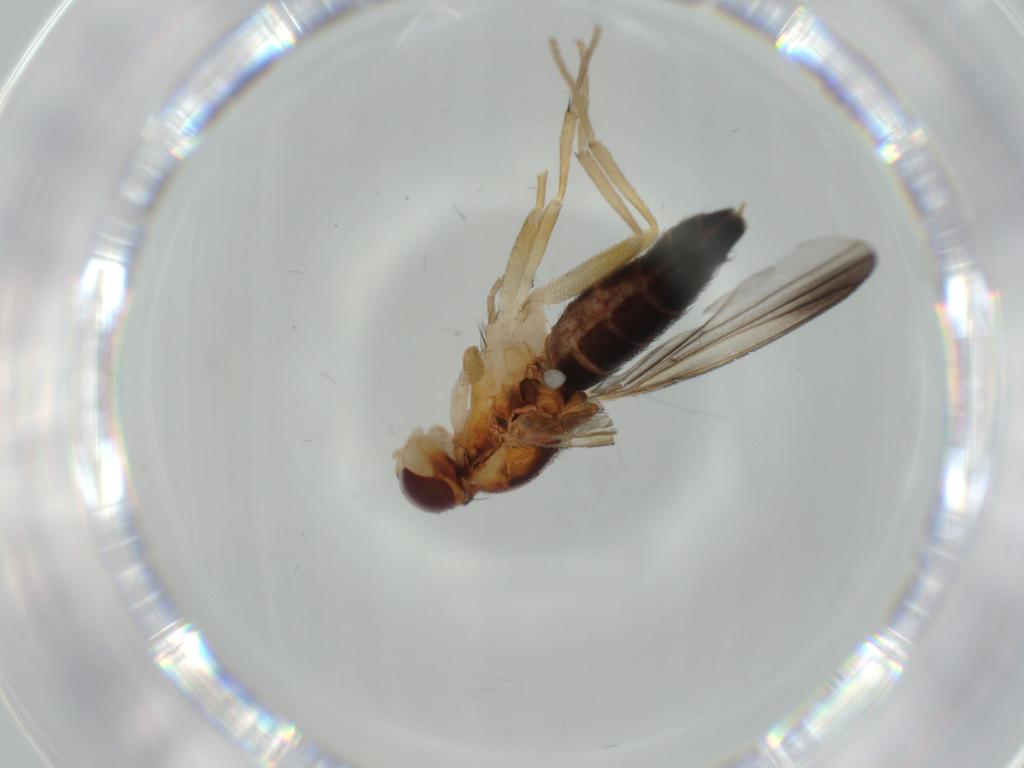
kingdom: Animalia
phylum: Arthropoda
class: Insecta
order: Diptera
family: Clusiidae
